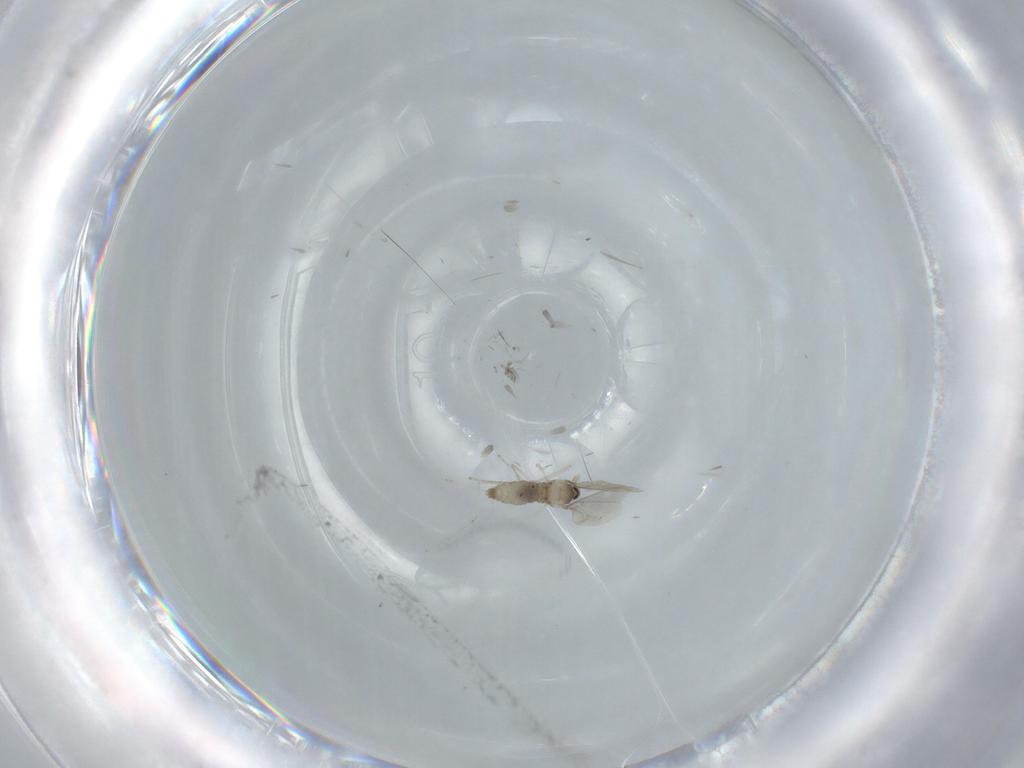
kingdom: Animalia
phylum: Arthropoda
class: Insecta
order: Diptera
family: Cecidomyiidae
